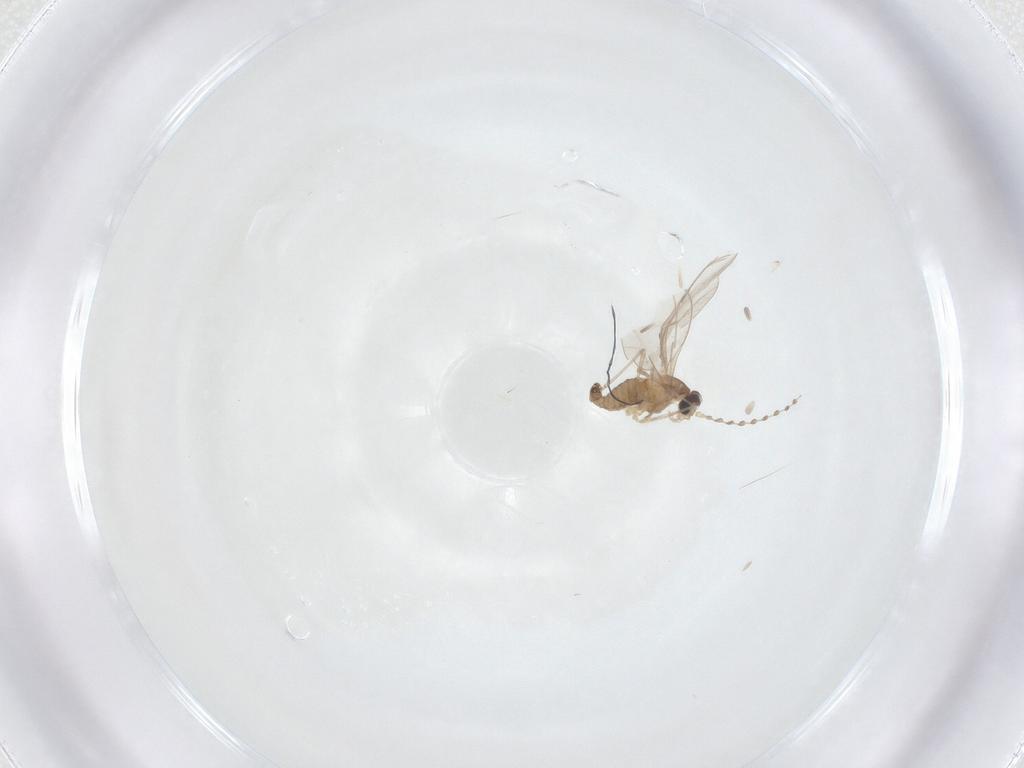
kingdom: Animalia
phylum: Arthropoda
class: Insecta
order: Diptera
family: Cecidomyiidae
